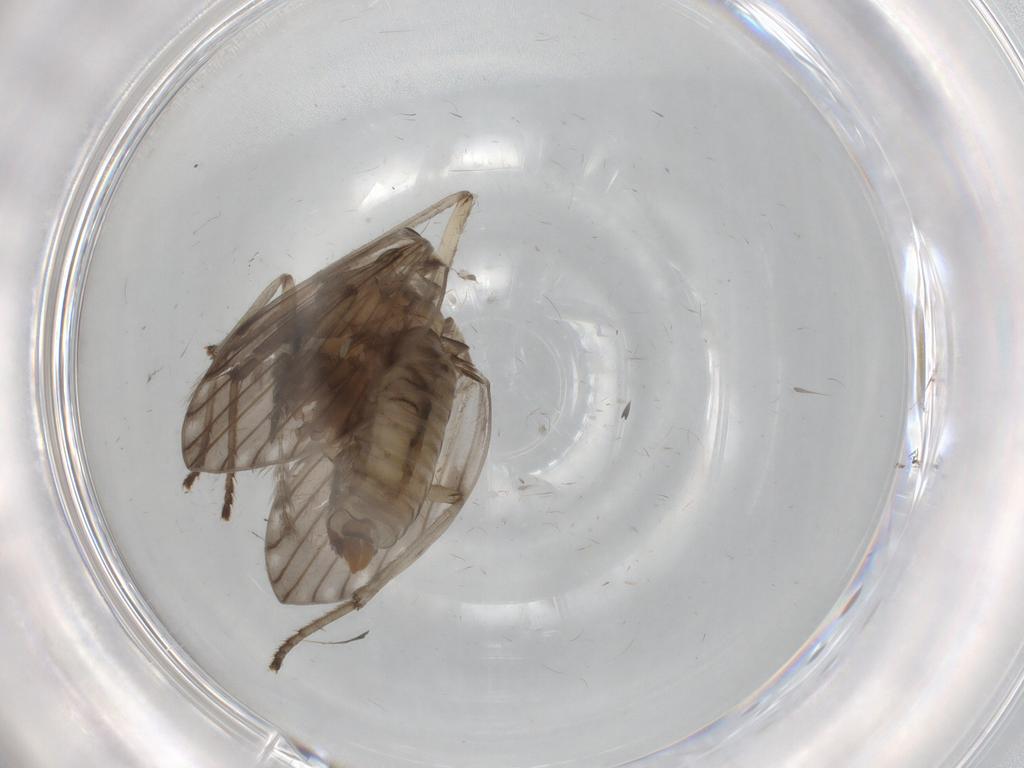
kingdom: Animalia
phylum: Arthropoda
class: Insecta
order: Diptera
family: Psychodidae
